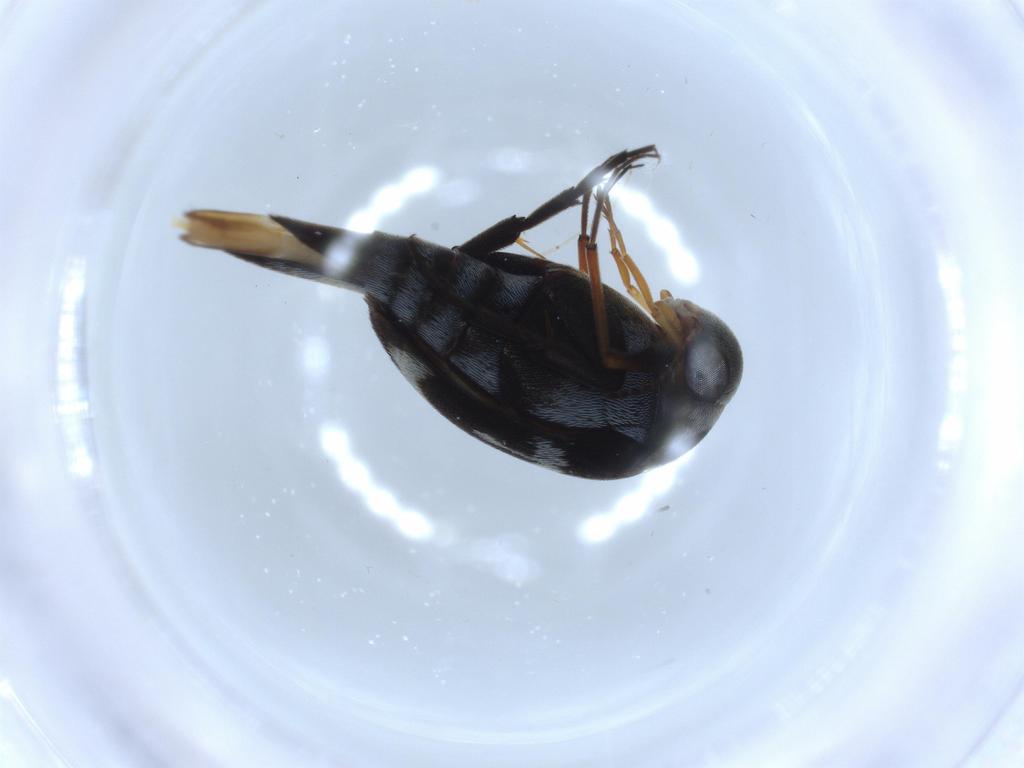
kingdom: Animalia
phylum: Arthropoda
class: Insecta
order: Coleoptera
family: Mordellidae
